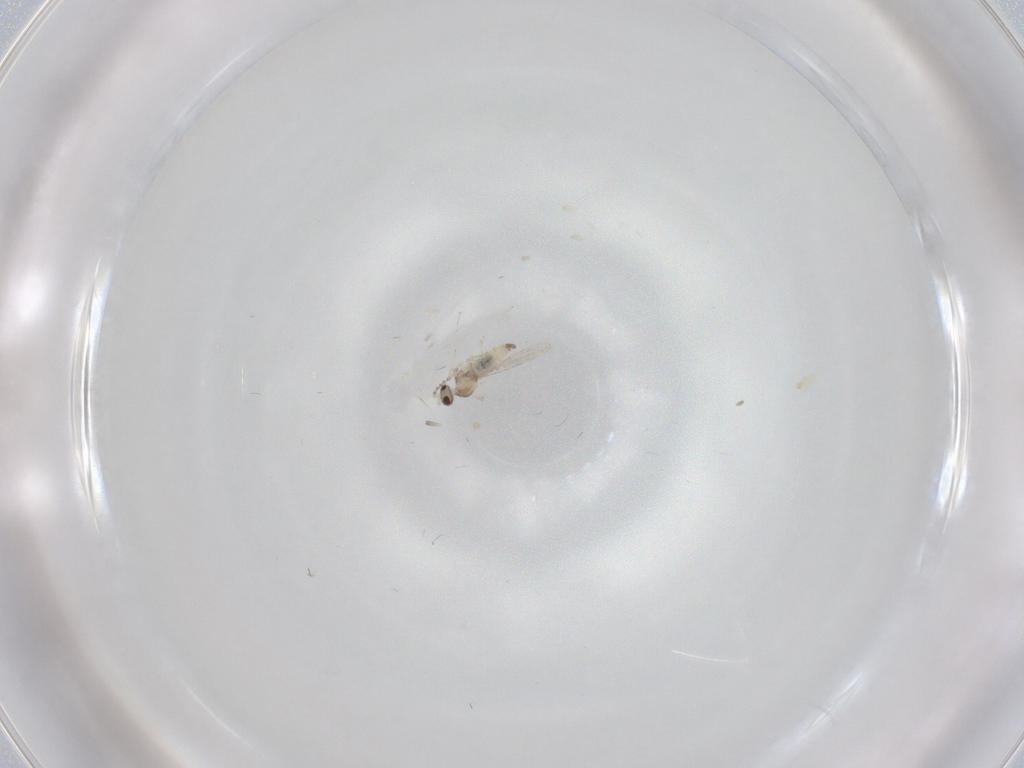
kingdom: Animalia
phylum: Arthropoda
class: Insecta
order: Diptera
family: Cecidomyiidae
